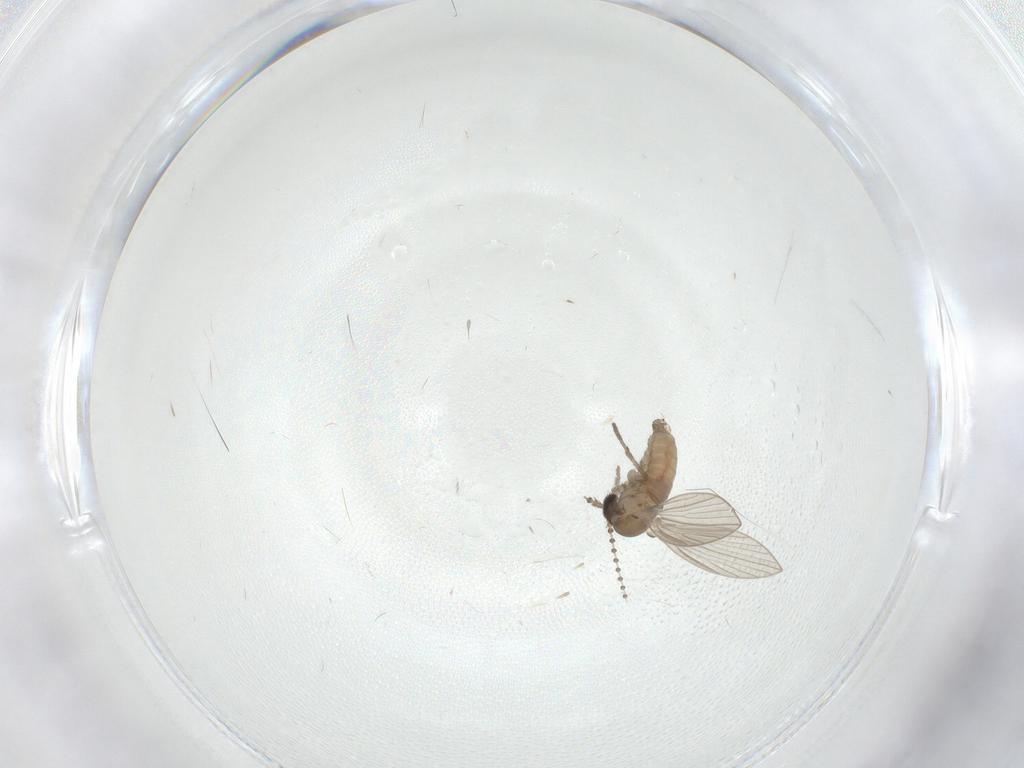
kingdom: Animalia
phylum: Arthropoda
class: Insecta
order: Diptera
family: Psychodidae
